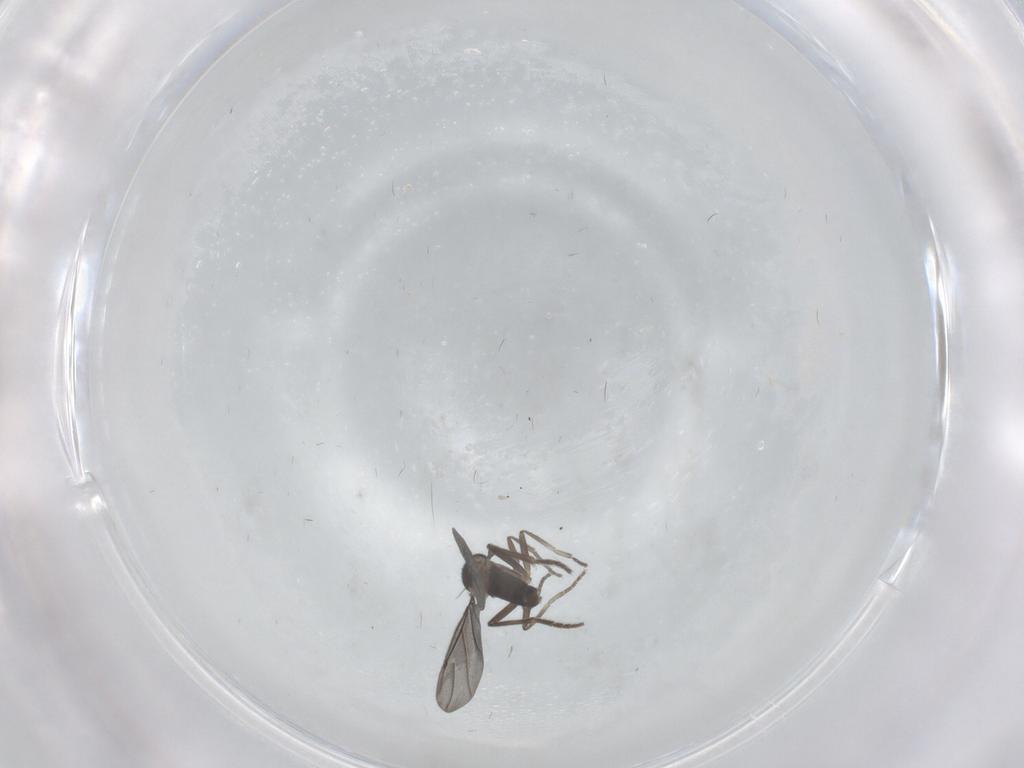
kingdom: Animalia
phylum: Arthropoda
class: Insecta
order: Diptera
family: Phoridae
